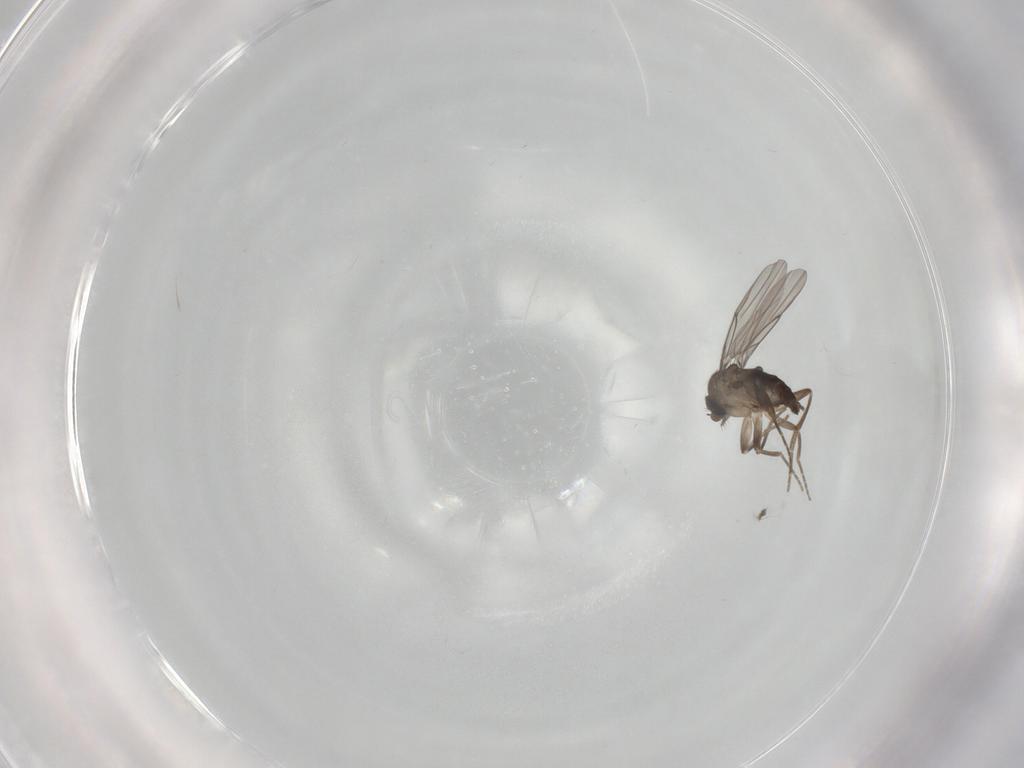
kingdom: Animalia
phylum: Arthropoda
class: Insecta
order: Diptera
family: Phoridae
